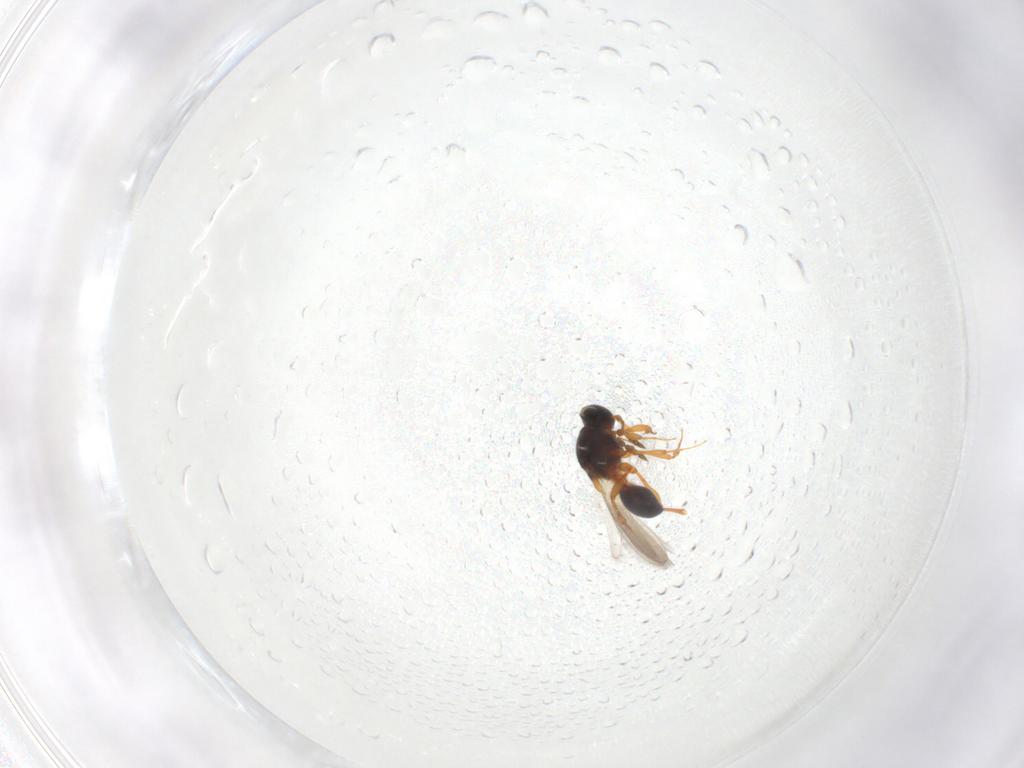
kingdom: Animalia
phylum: Arthropoda
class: Insecta
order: Hymenoptera
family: Platygastridae
